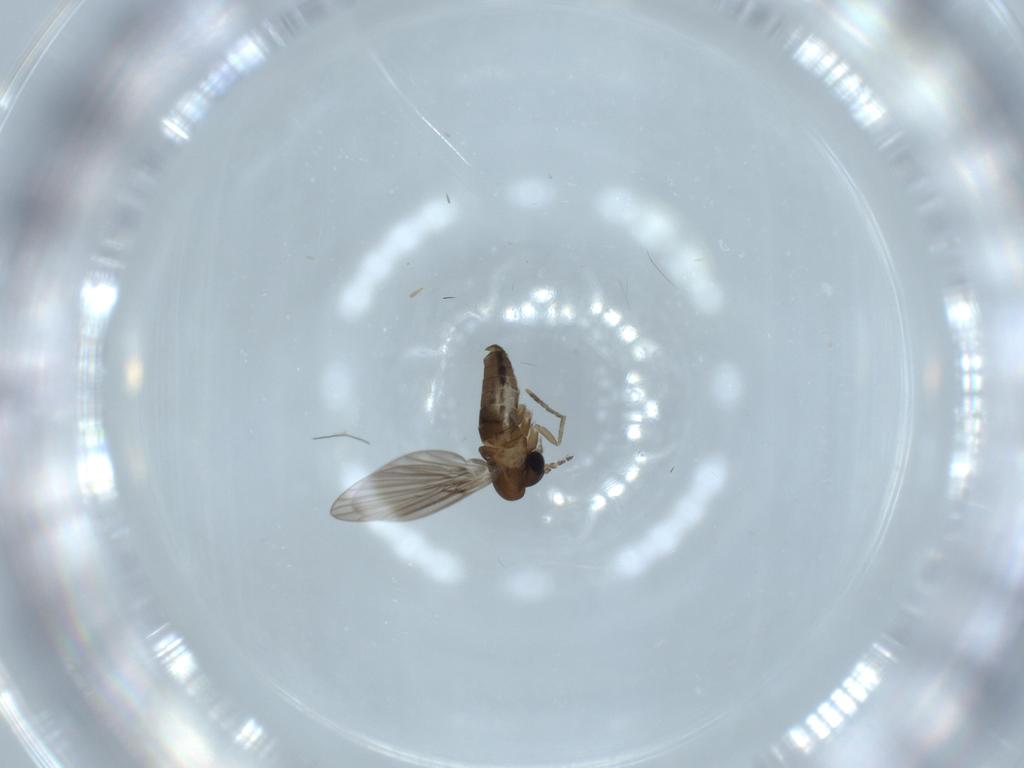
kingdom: Animalia
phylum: Arthropoda
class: Insecta
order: Diptera
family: Psychodidae
